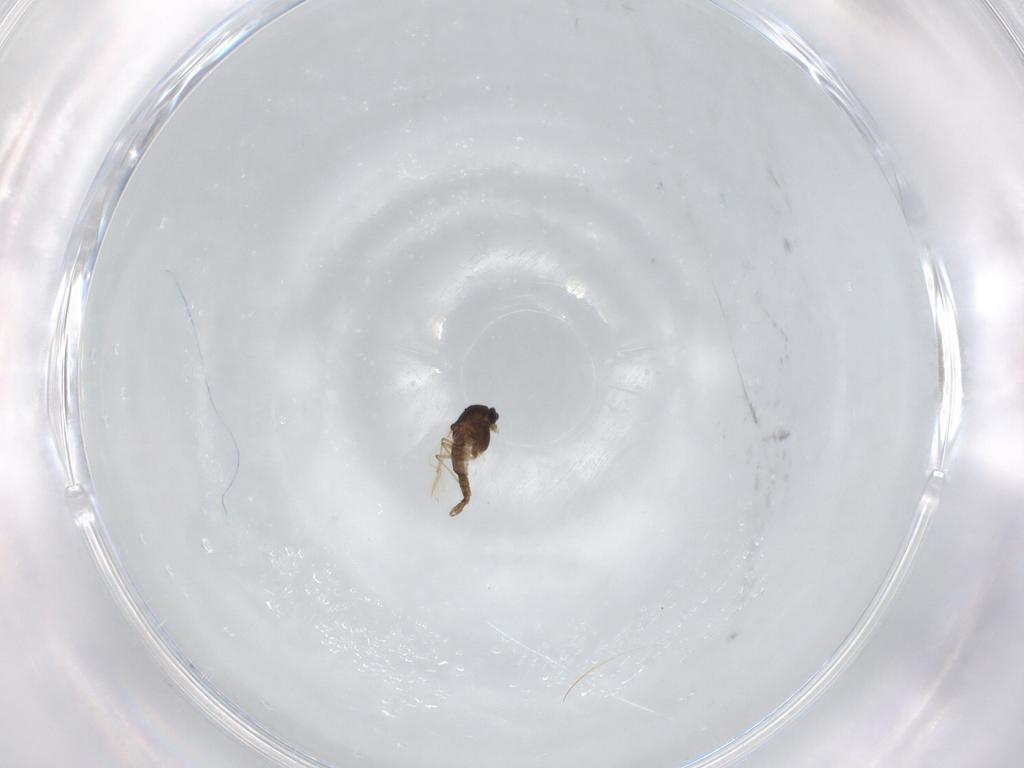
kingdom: Animalia
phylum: Arthropoda
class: Insecta
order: Diptera
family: Chironomidae
